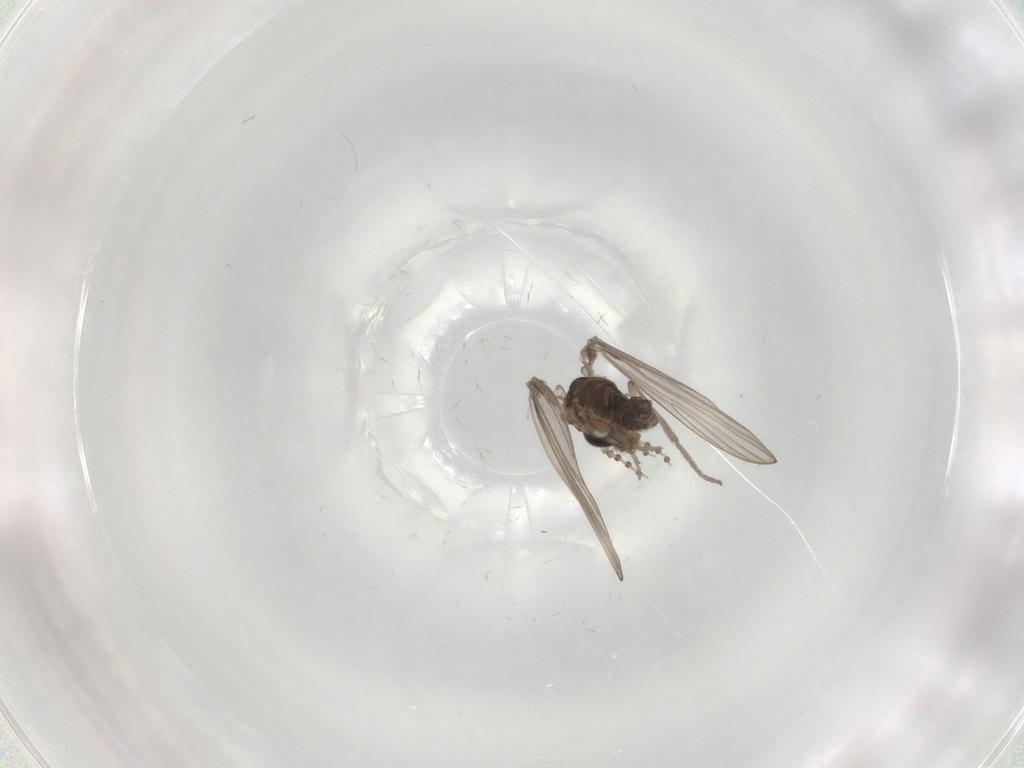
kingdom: Animalia
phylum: Arthropoda
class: Insecta
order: Diptera
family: Psychodidae
